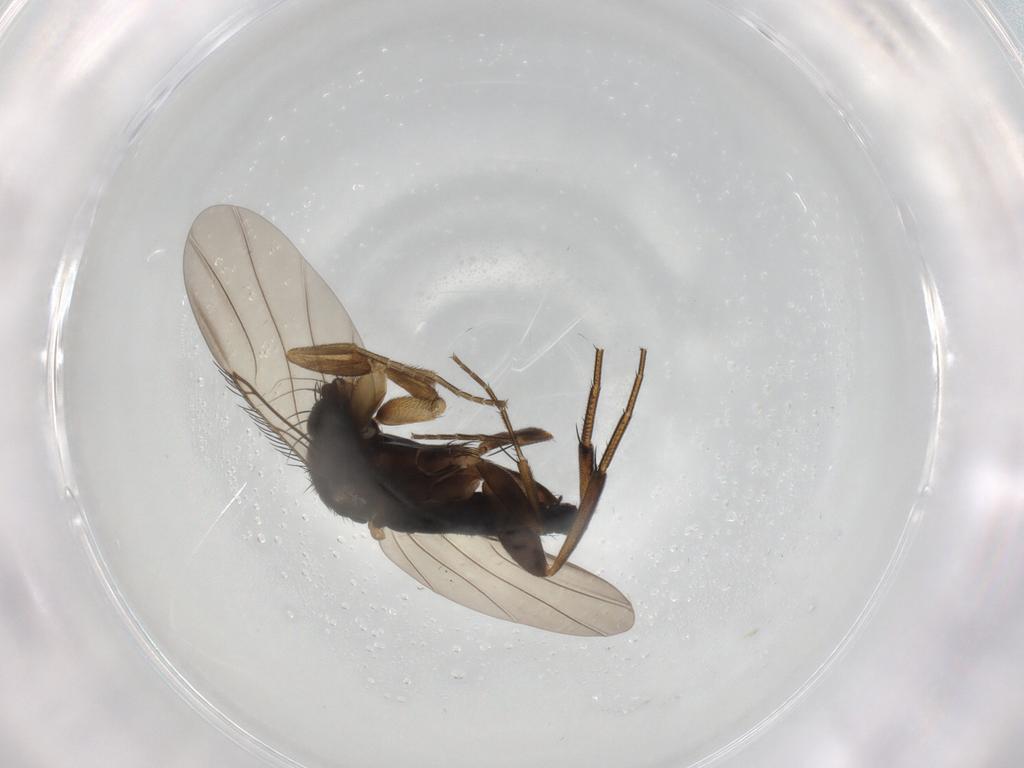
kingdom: Animalia
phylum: Arthropoda
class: Insecta
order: Diptera
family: Phoridae
